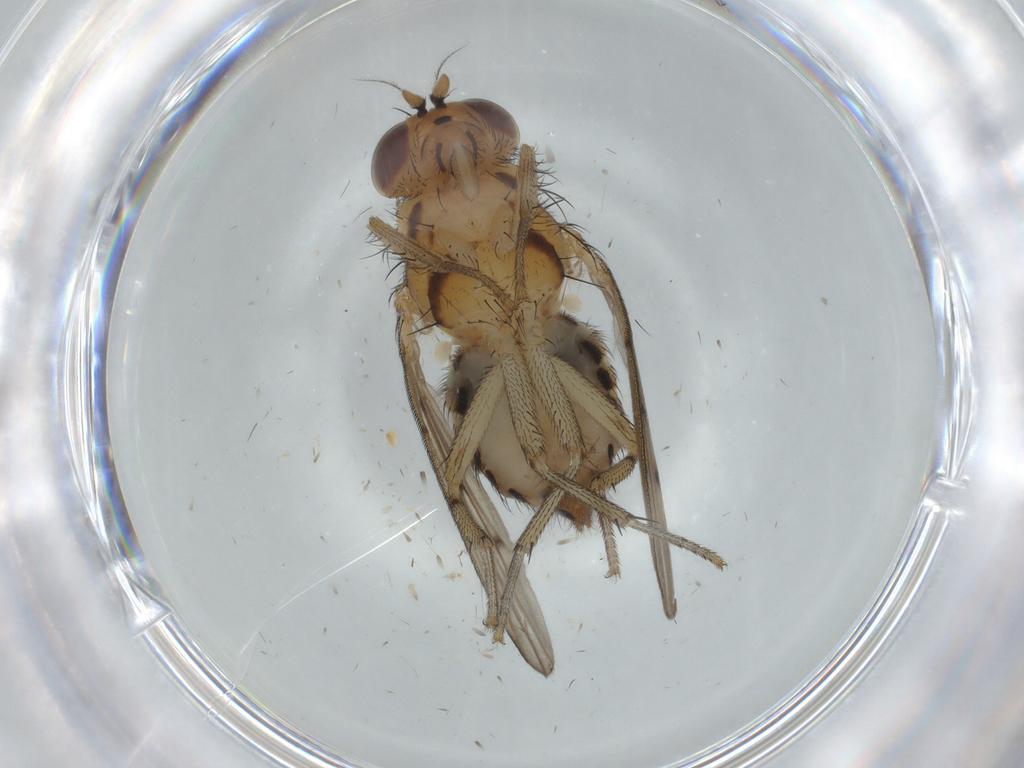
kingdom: Animalia
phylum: Arthropoda
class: Insecta
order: Diptera
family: Lauxaniidae
